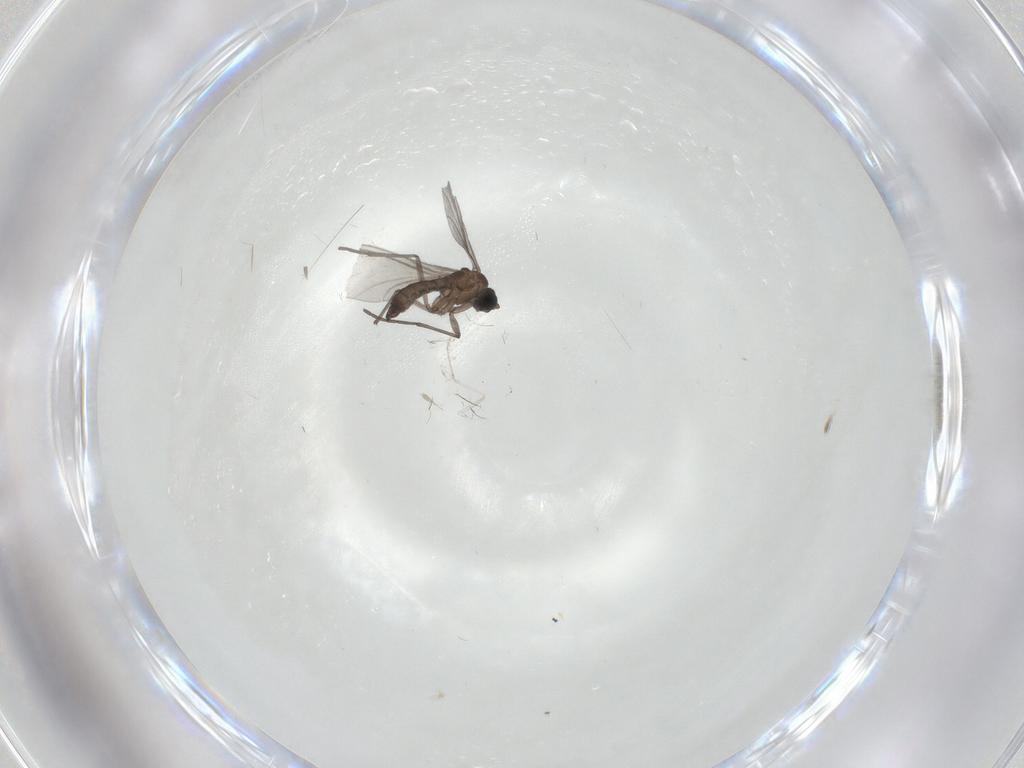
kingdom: Animalia
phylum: Arthropoda
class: Insecta
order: Diptera
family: Cecidomyiidae
